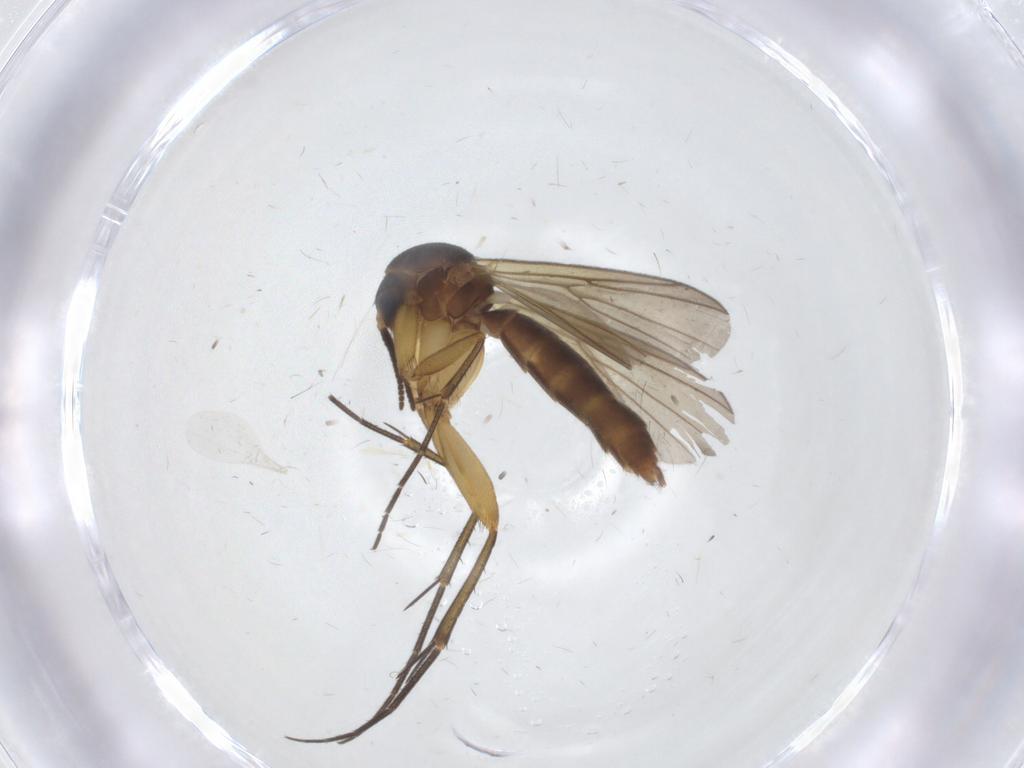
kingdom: Animalia
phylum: Arthropoda
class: Insecta
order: Diptera
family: Mycetophilidae
